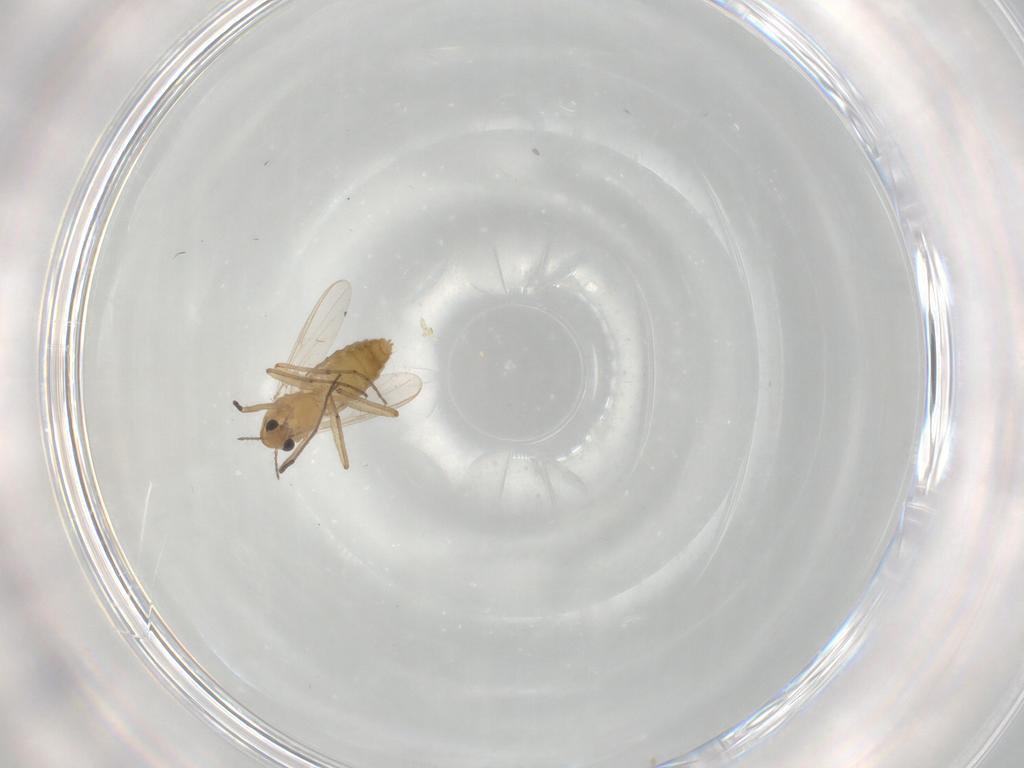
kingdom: Animalia
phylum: Arthropoda
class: Insecta
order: Diptera
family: Chironomidae
